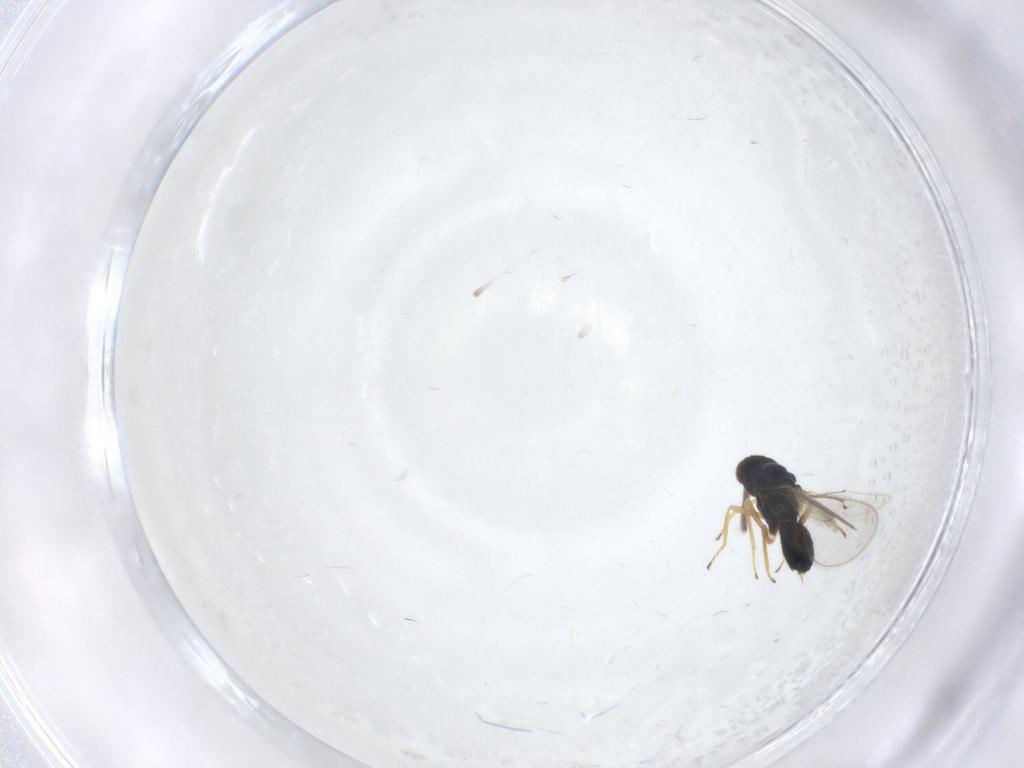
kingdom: Animalia
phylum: Arthropoda
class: Insecta
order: Hymenoptera
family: Eulophidae
